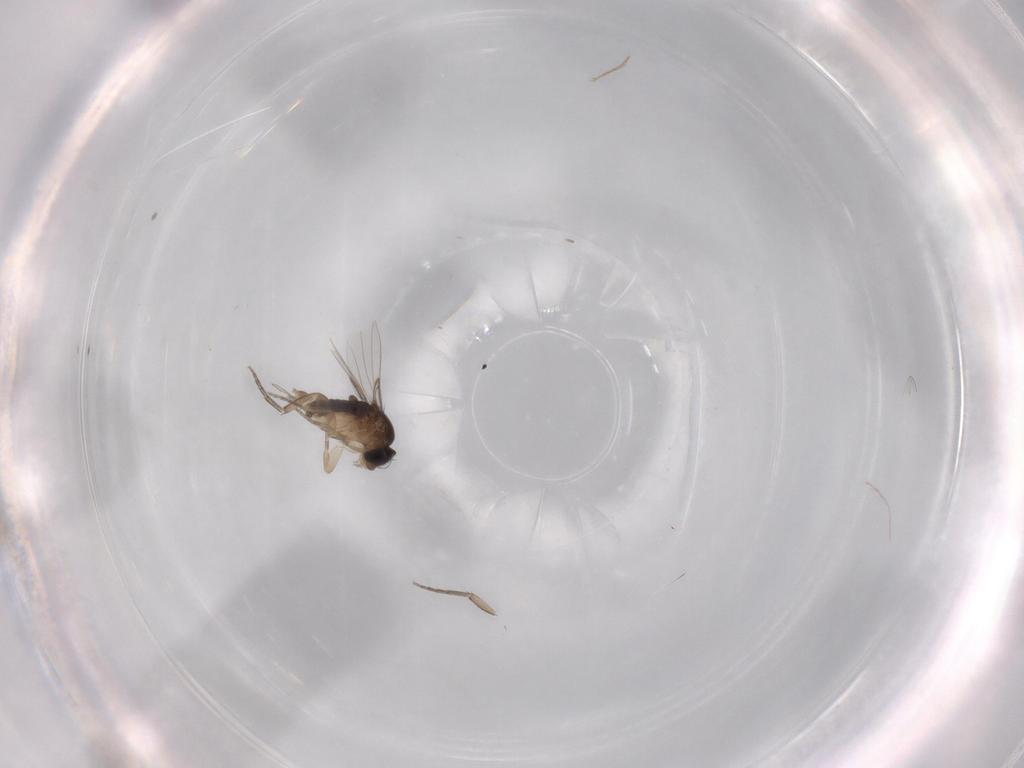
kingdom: Animalia
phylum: Arthropoda
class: Insecta
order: Diptera
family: Phoridae
